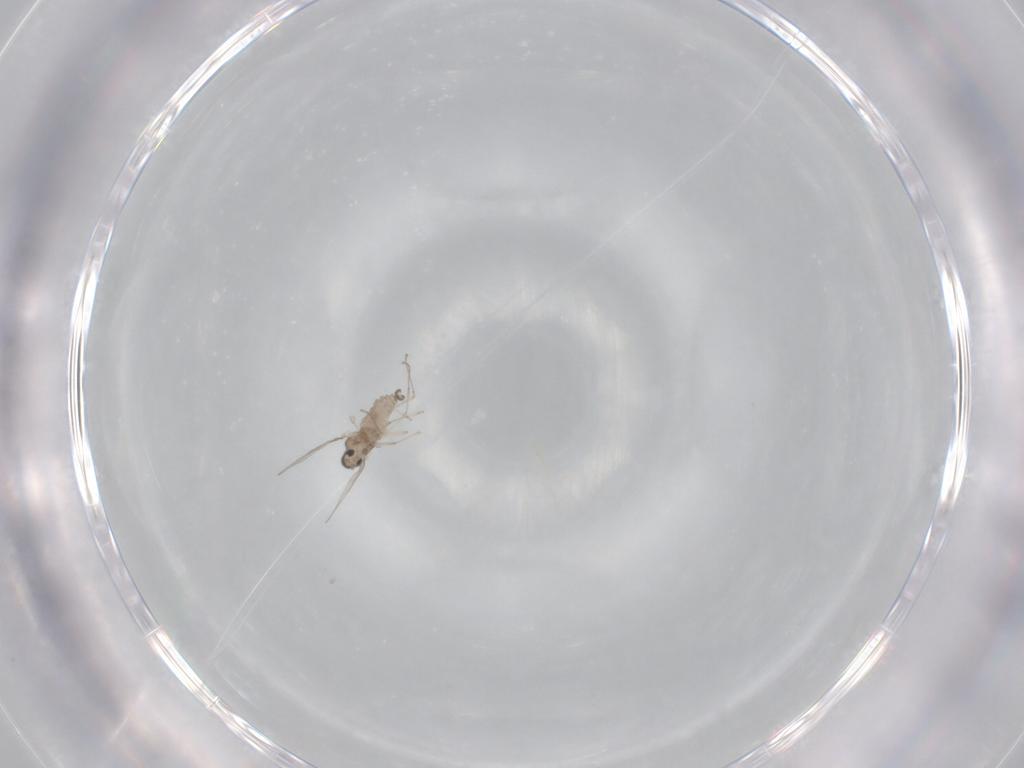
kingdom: Animalia
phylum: Arthropoda
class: Insecta
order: Diptera
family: Cecidomyiidae
